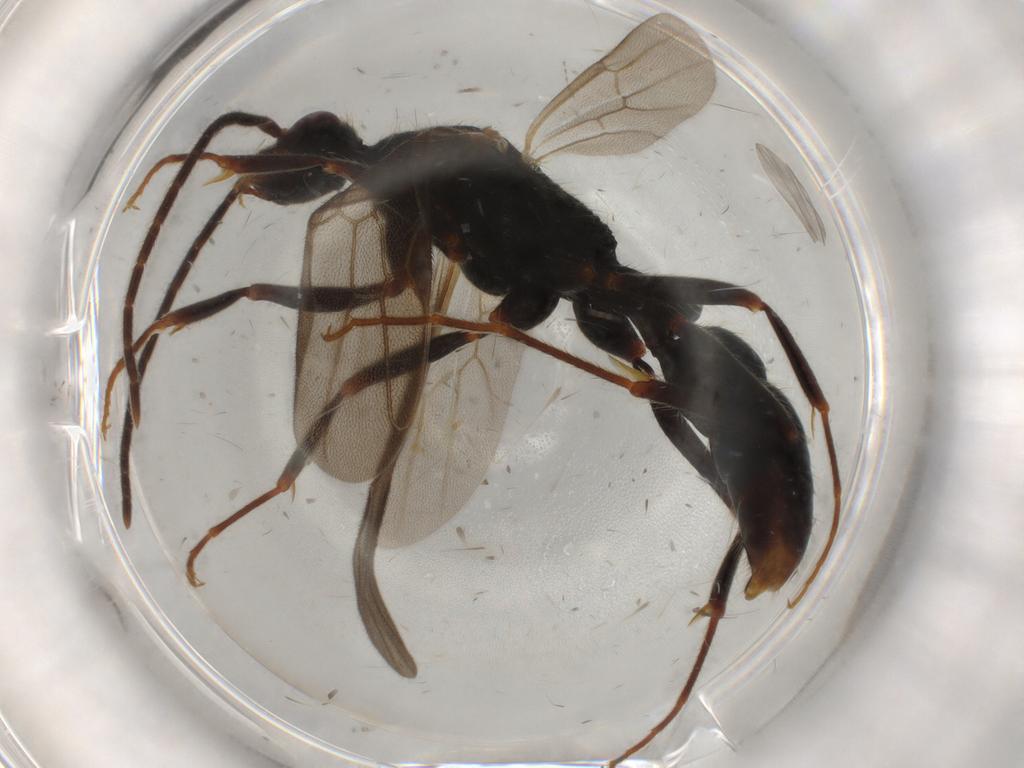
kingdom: Animalia
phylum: Arthropoda
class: Insecta
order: Hymenoptera
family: Formicidae
